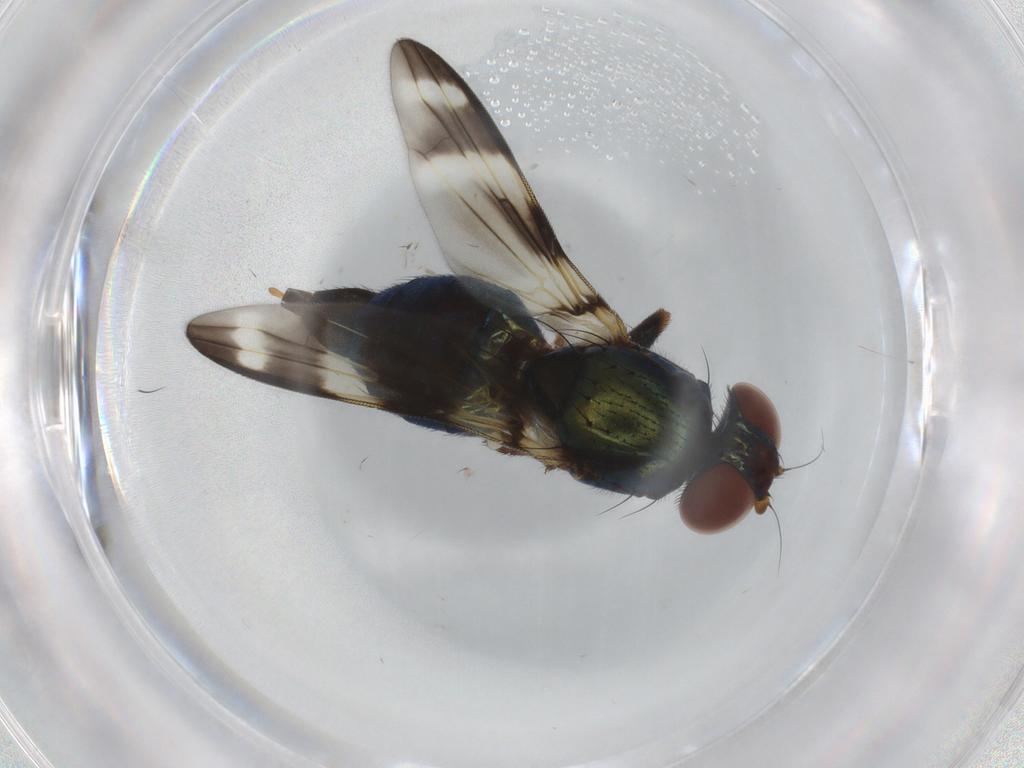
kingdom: Animalia
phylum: Arthropoda
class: Insecta
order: Diptera
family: Ulidiidae
